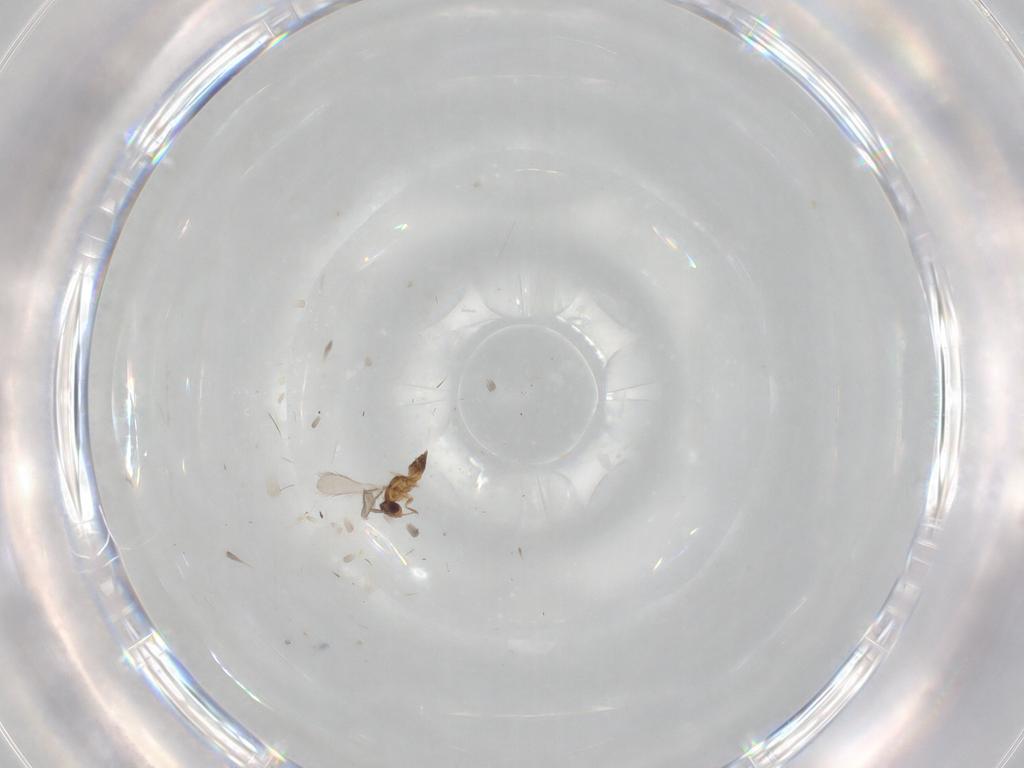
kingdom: Animalia
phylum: Arthropoda
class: Insecta
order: Hymenoptera
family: Mymaridae
